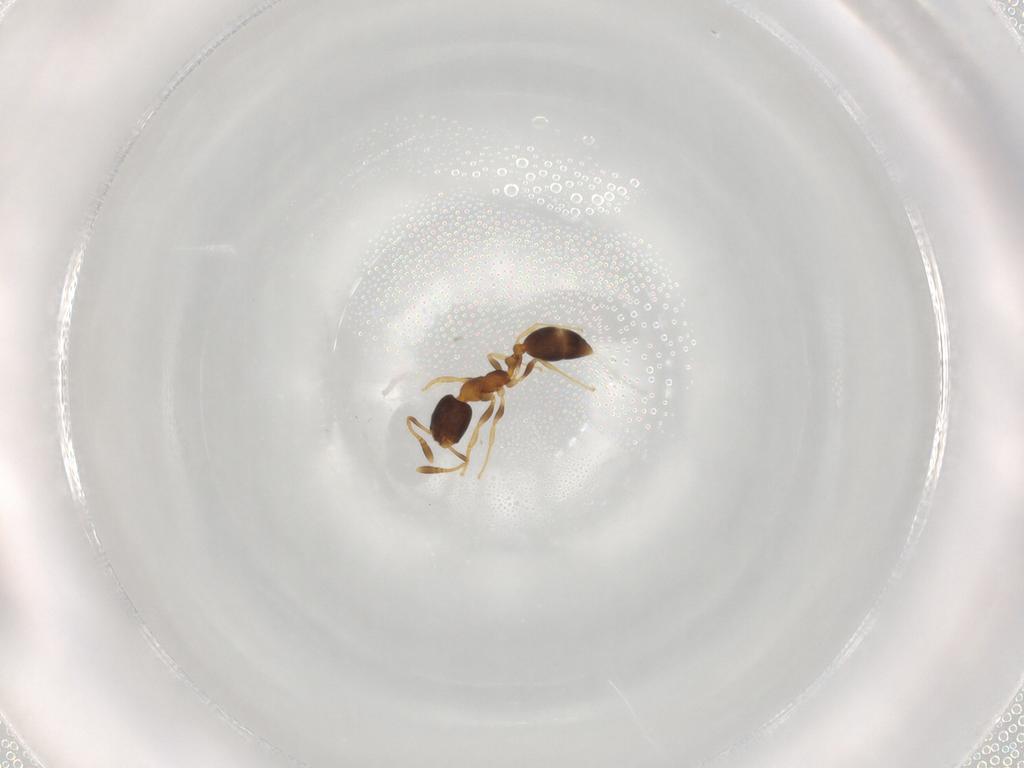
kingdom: Animalia
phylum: Arthropoda
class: Insecta
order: Hymenoptera
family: Formicidae
